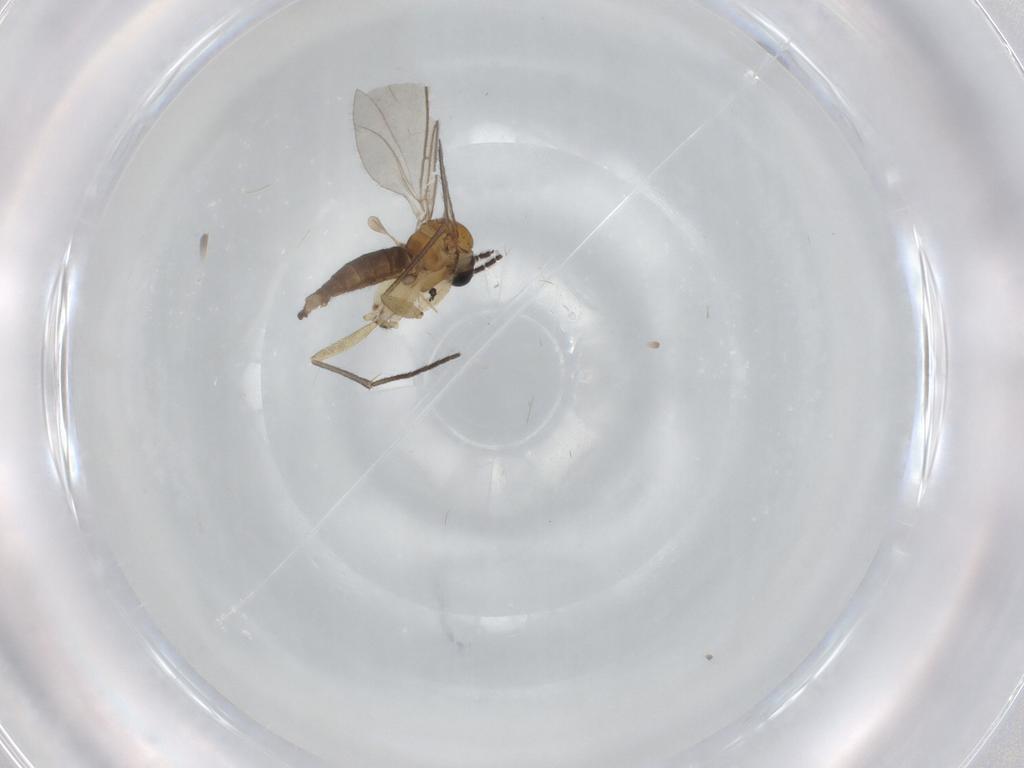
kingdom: Animalia
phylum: Arthropoda
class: Insecta
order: Diptera
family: Sciaridae
